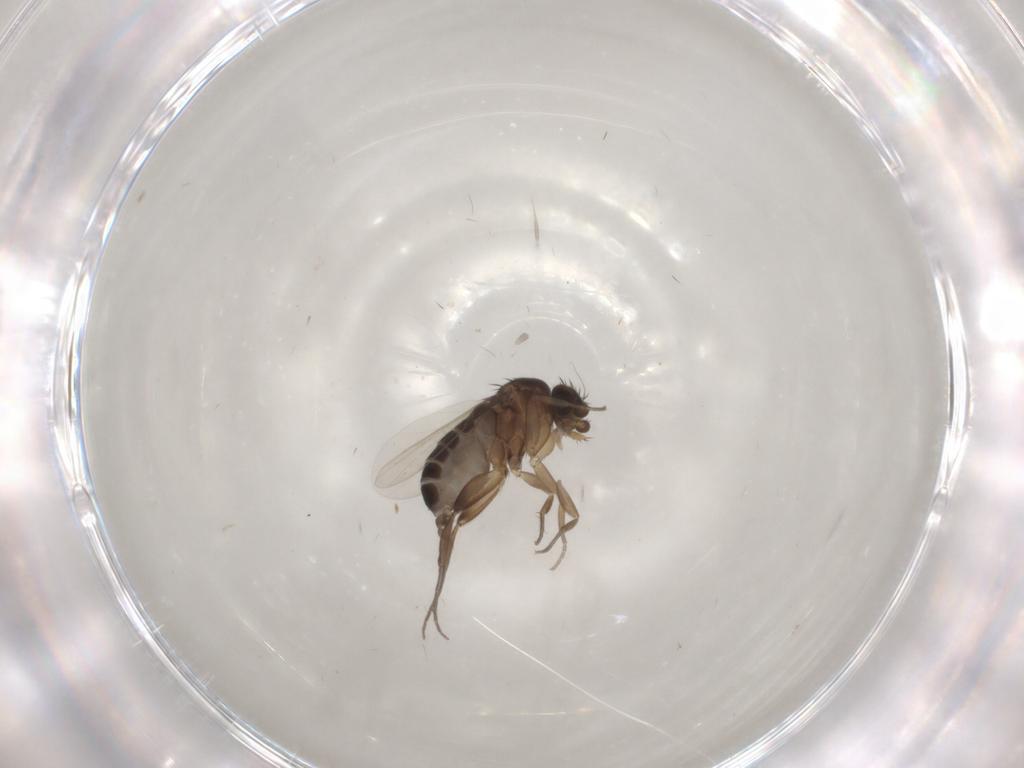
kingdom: Animalia
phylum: Arthropoda
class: Insecta
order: Diptera
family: Phoridae
